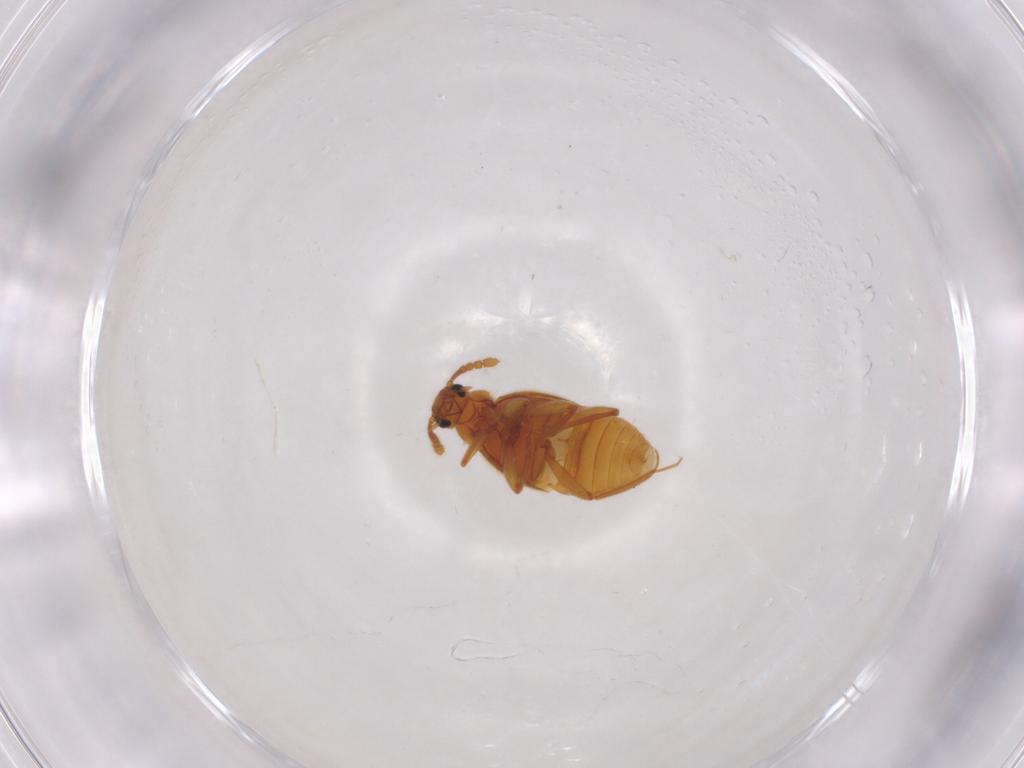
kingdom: Animalia
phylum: Arthropoda
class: Insecta
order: Coleoptera
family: Staphylinidae
